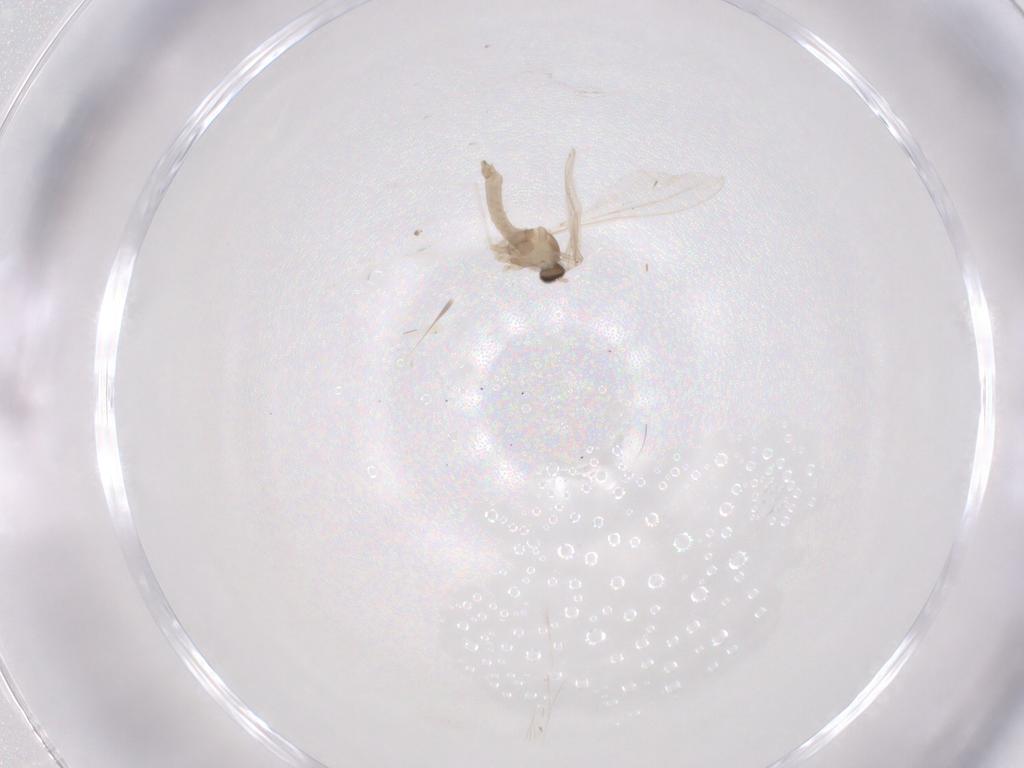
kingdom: Animalia
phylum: Arthropoda
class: Insecta
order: Diptera
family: Cecidomyiidae
